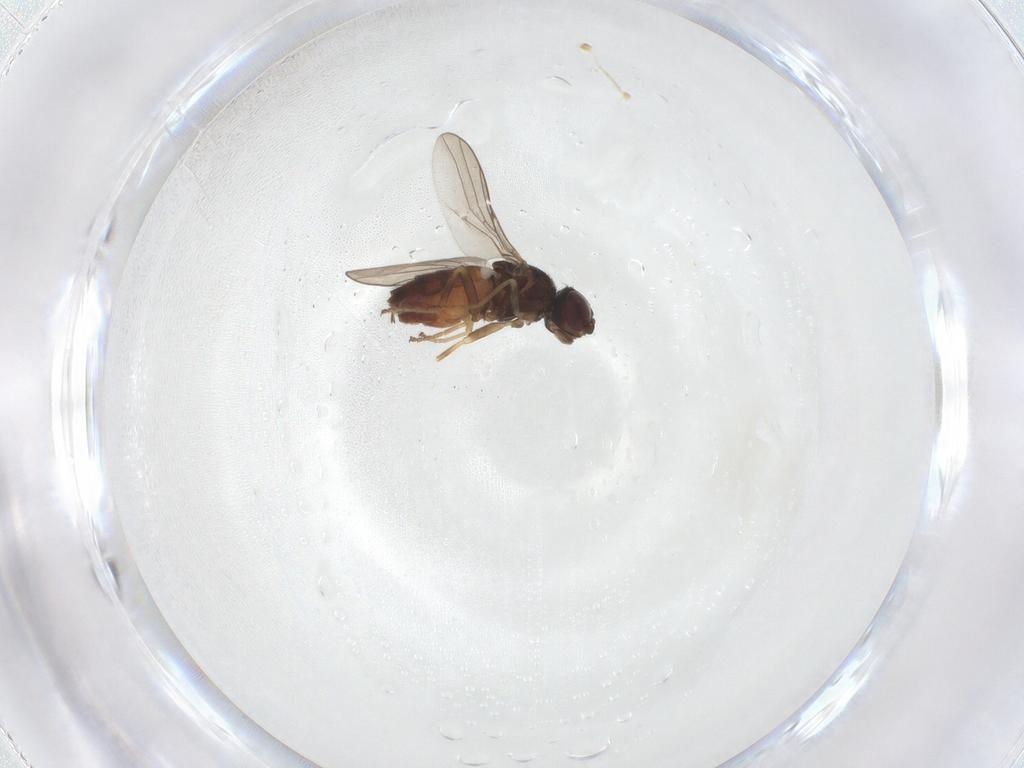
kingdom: Animalia
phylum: Arthropoda
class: Insecta
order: Diptera
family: Chloropidae
